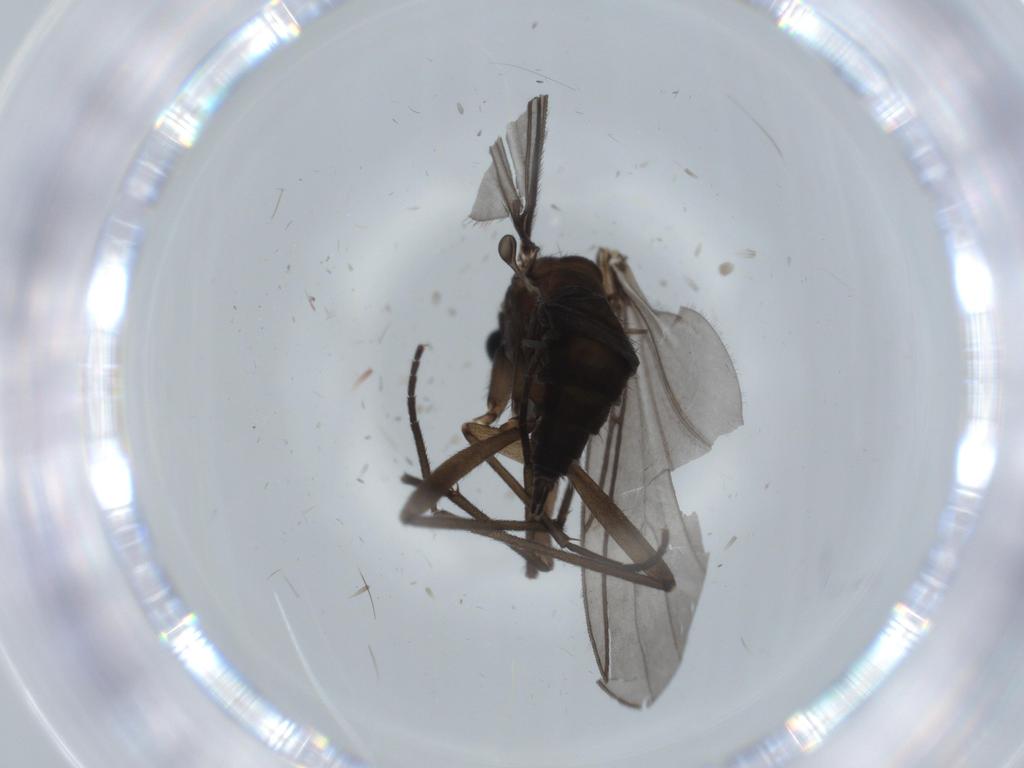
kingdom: Animalia
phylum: Arthropoda
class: Insecta
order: Diptera
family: Sciaridae
